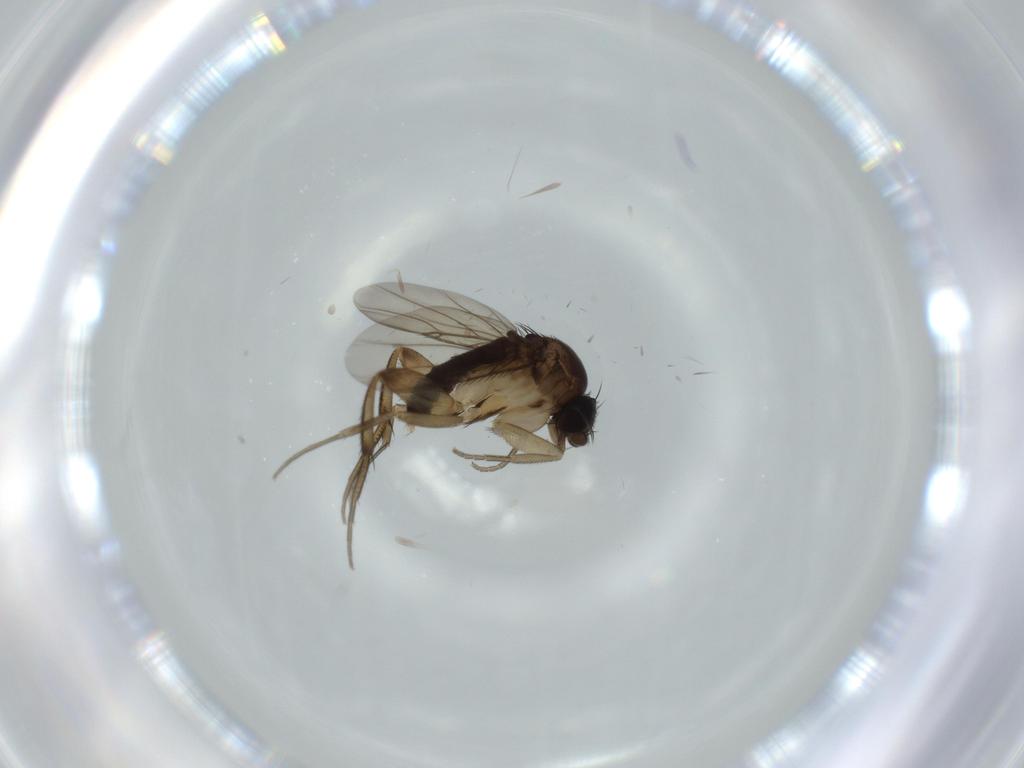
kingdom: Animalia
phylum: Arthropoda
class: Insecta
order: Diptera
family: Phoridae
